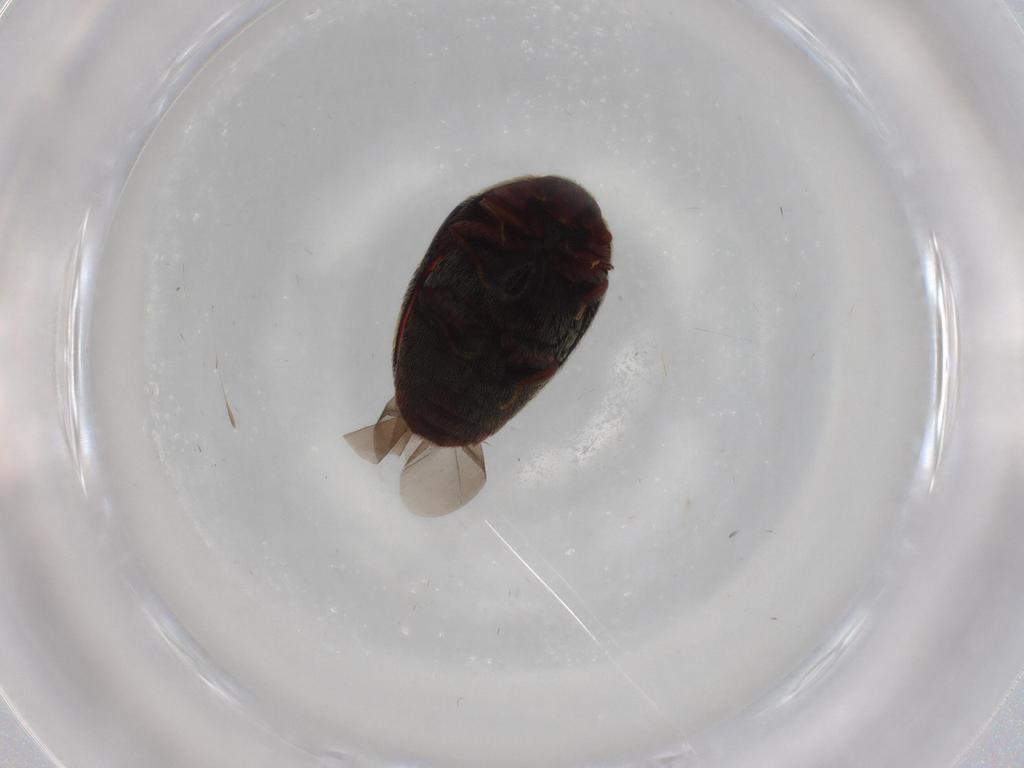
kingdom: Animalia
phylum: Arthropoda
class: Insecta
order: Coleoptera
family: Dermestidae
